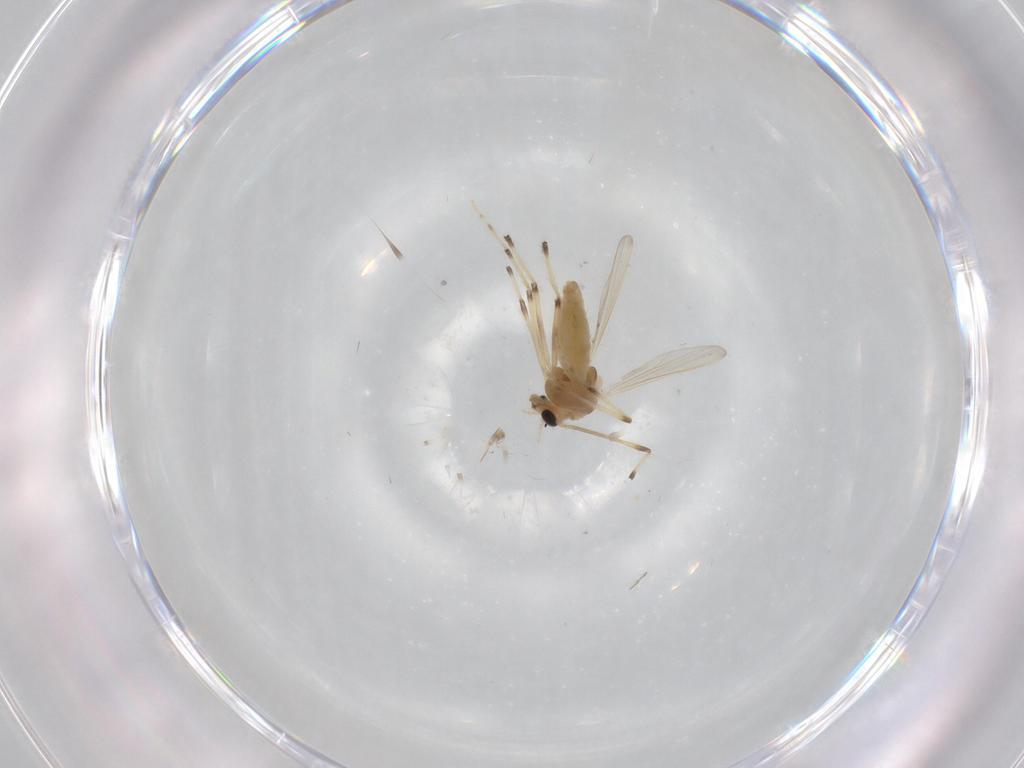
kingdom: Animalia
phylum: Arthropoda
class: Insecta
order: Diptera
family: Chironomidae
